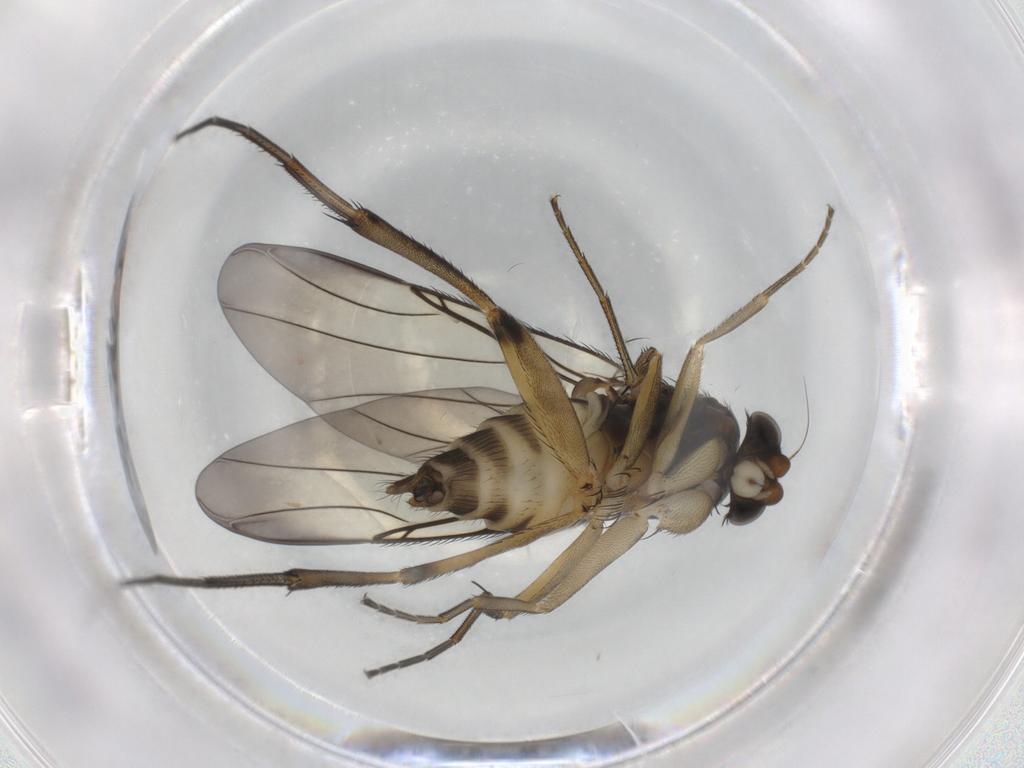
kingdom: Animalia
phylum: Arthropoda
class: Insecta
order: Diptera
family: Phoridae
